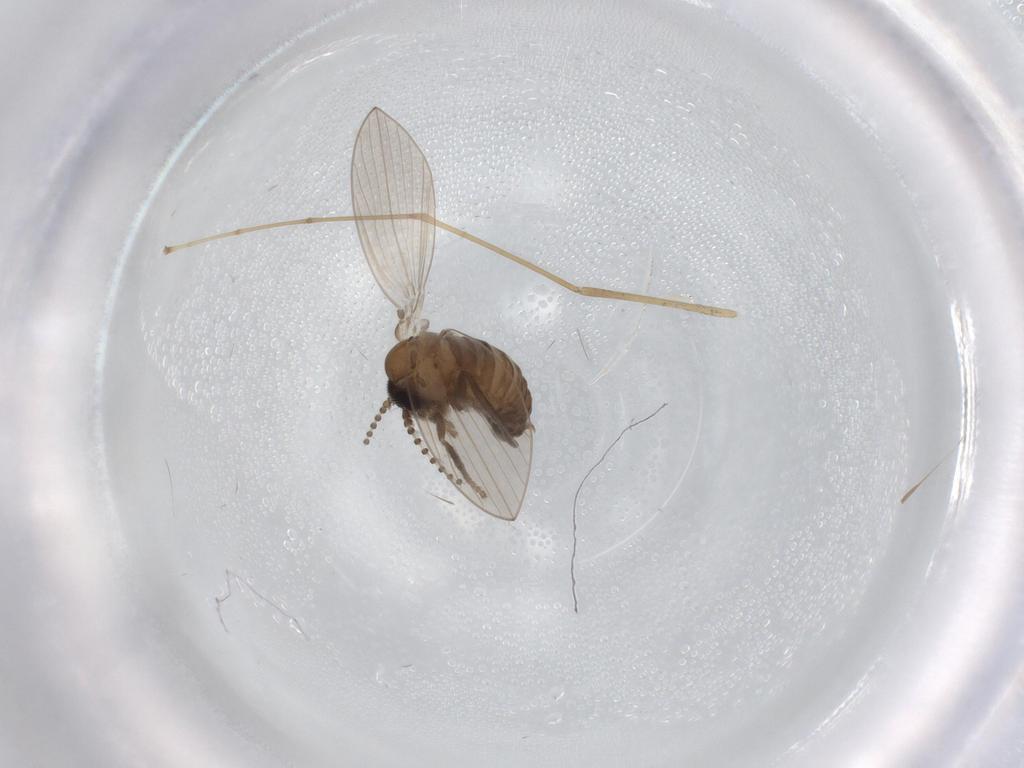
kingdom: Animalia
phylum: Arthropoda
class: Insecta
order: Diptera
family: Psychodidae
